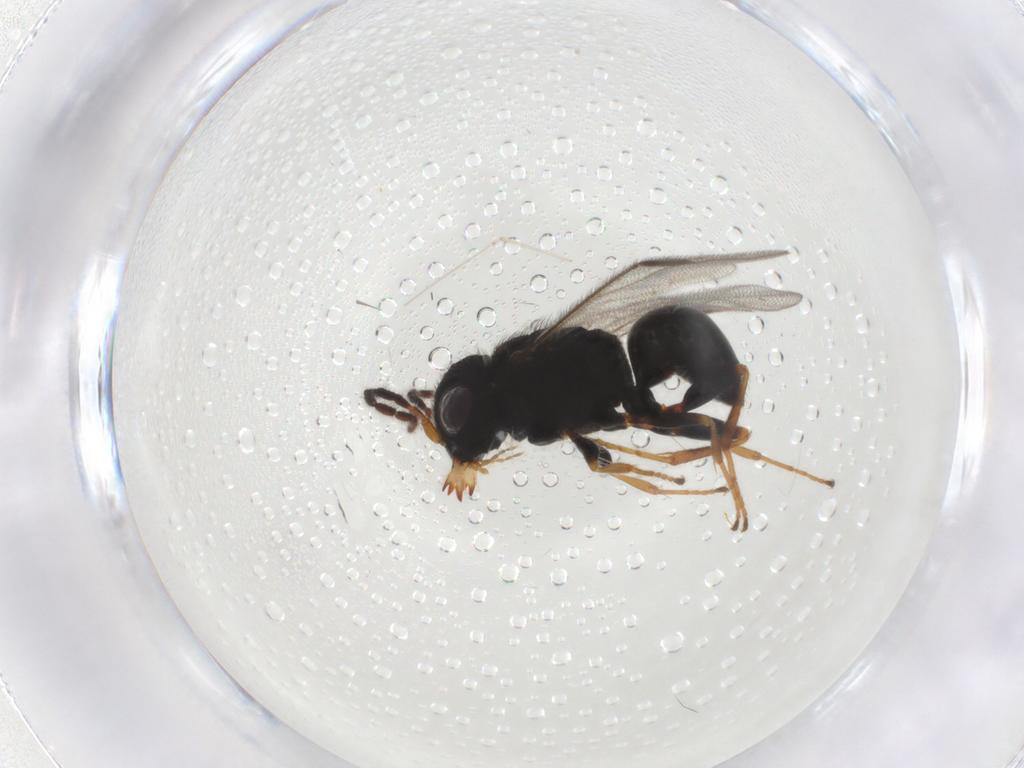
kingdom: Animalia
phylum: Arthropoda
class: Insecta
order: Hymenoptera
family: Dryinidae
